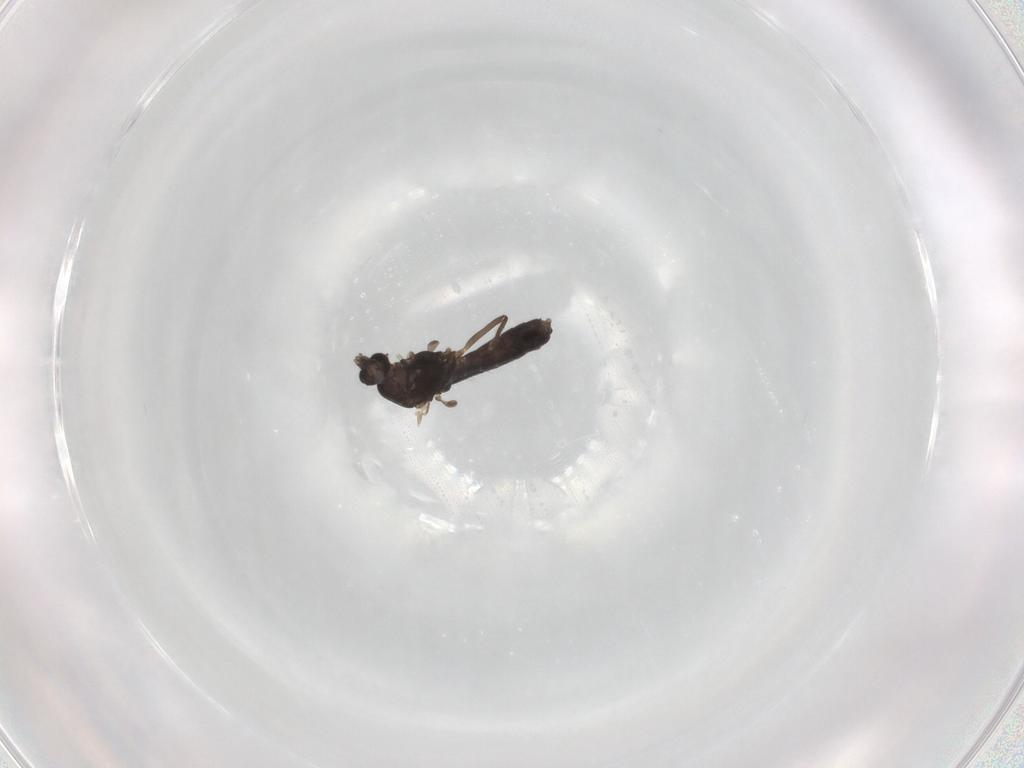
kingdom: Animalia
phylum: Arthropoda
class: Insecta
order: Diptera
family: Chironomidae
